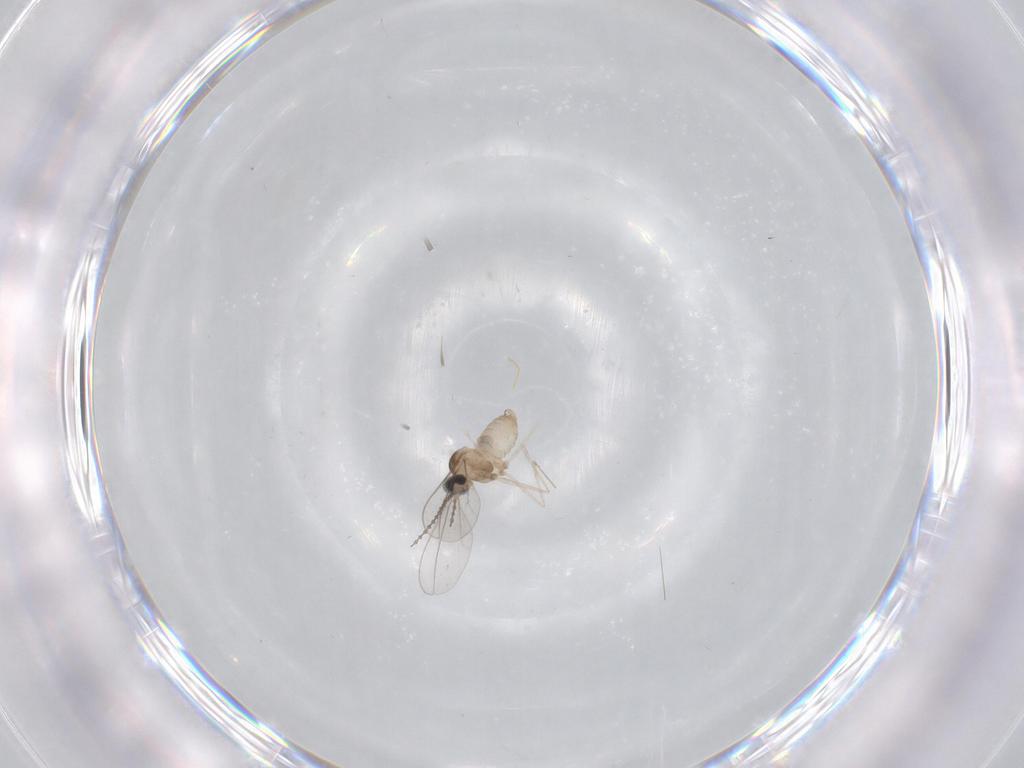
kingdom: Animalia
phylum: Arthropoda
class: Insecta
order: Diptera
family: Cecidomyiidae
